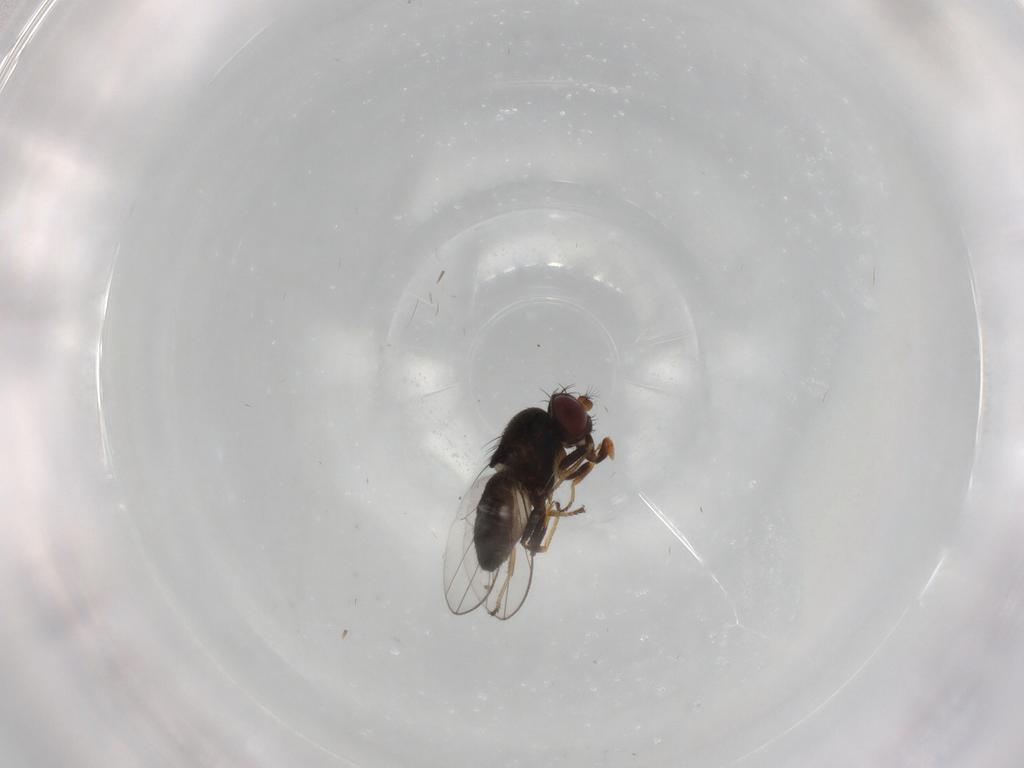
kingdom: Animalia
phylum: Arthropoda
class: Insecta
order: Diptera
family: Ephydridae
